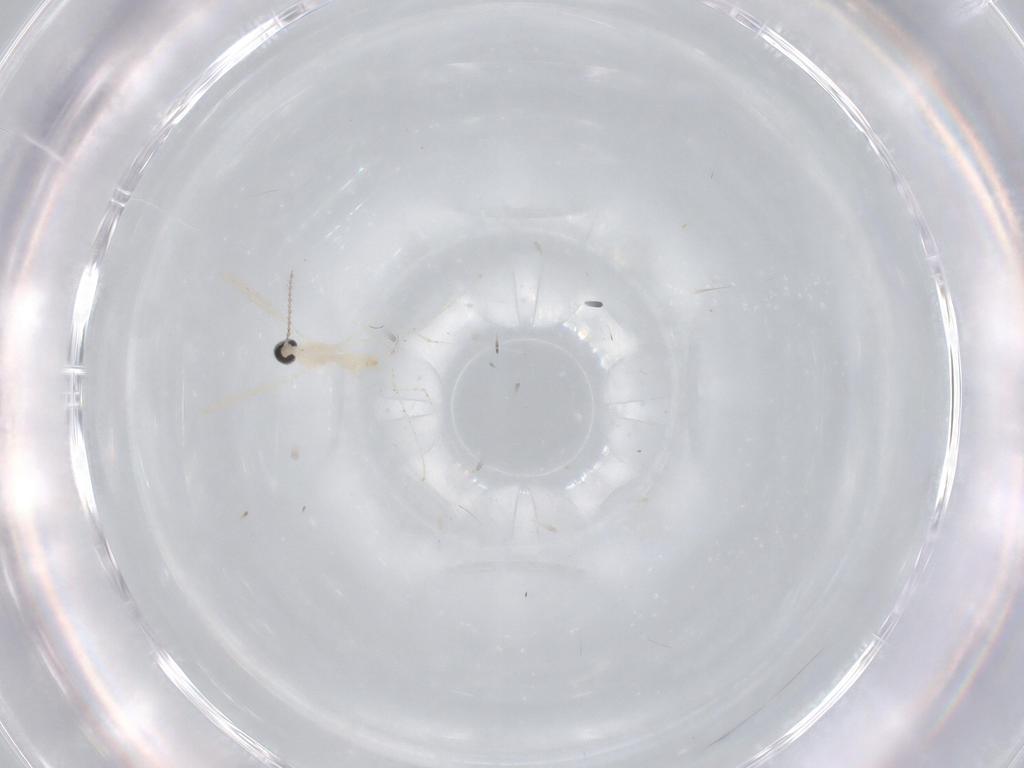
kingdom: Animalia
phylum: Arthropoda
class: Insecta
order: Diptera
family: Cecidomyiidae
